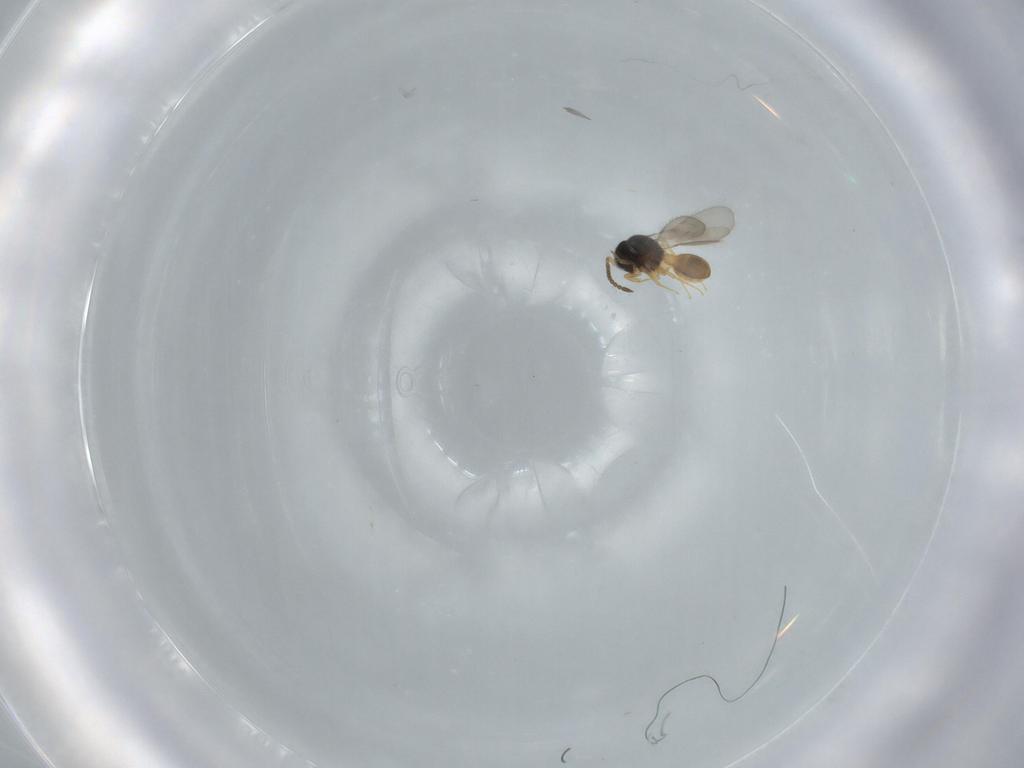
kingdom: Animalia
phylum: Arthropoda
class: Insecta
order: Hymenoptera
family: Scelionidae
